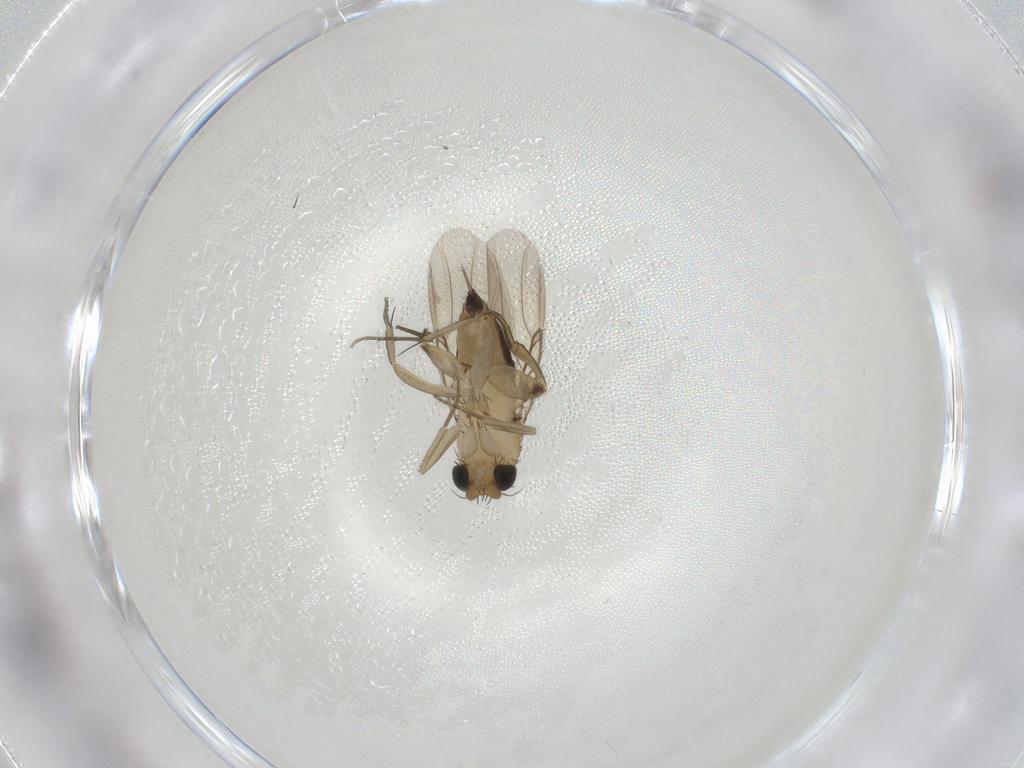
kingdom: Animalia
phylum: Arthropoda
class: Insecta
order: Diptera
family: Phoridae
